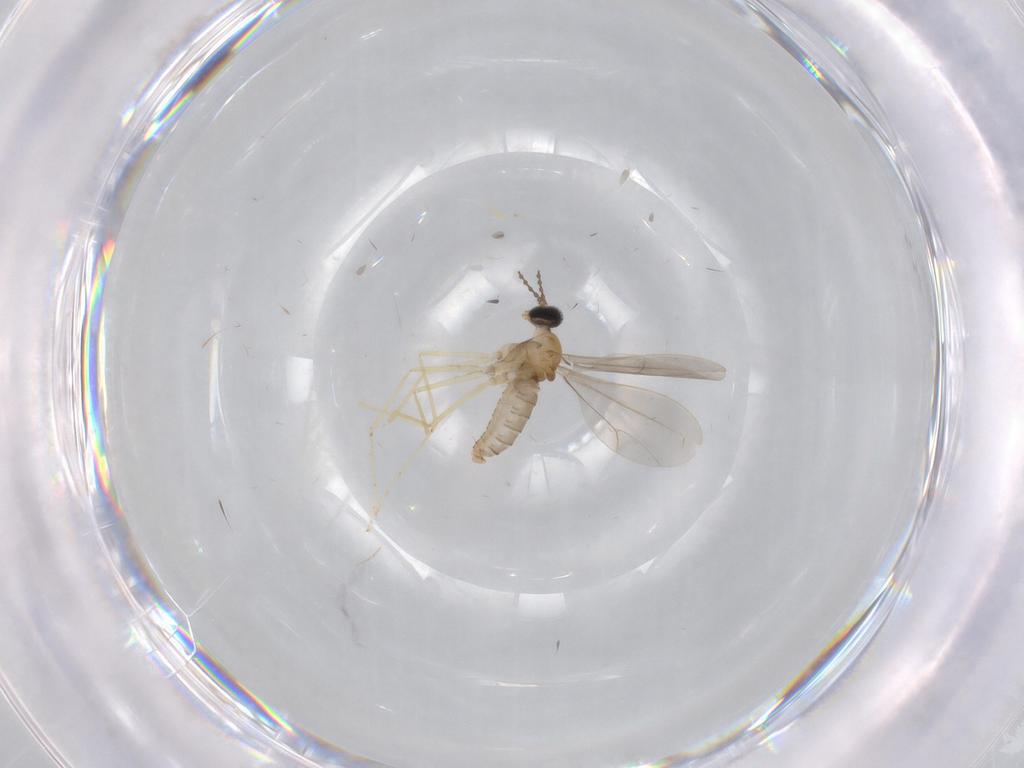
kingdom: Animalia
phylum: Arthropoda
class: Insecta
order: Diptera
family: Cecidomyiidae
